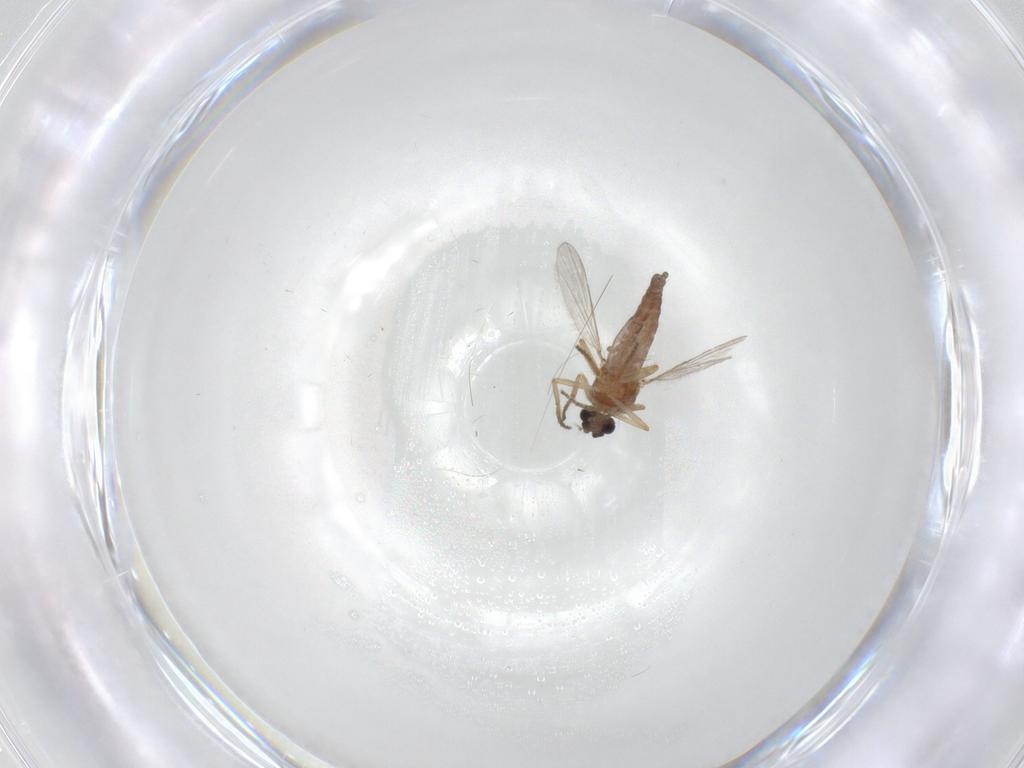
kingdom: Animalia
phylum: Arthropoda
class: Insecta
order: Diptera
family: Ceratopogonidae
